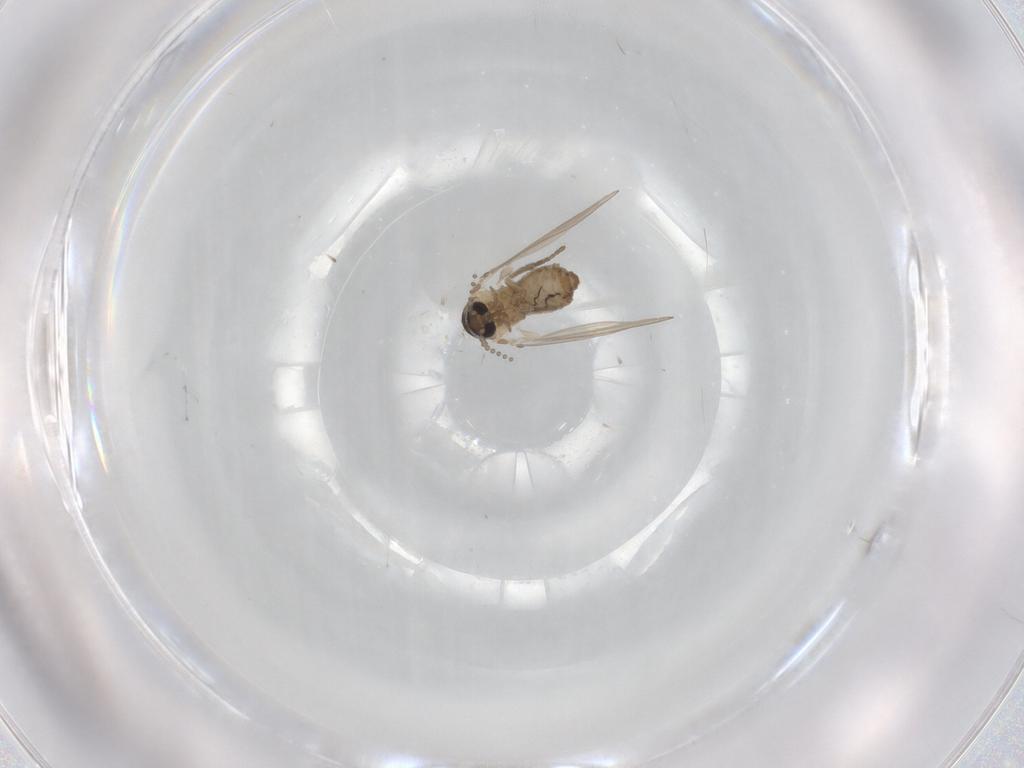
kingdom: Animalia
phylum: Arthropoda
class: Insecta
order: Diptera
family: Psychodidae
